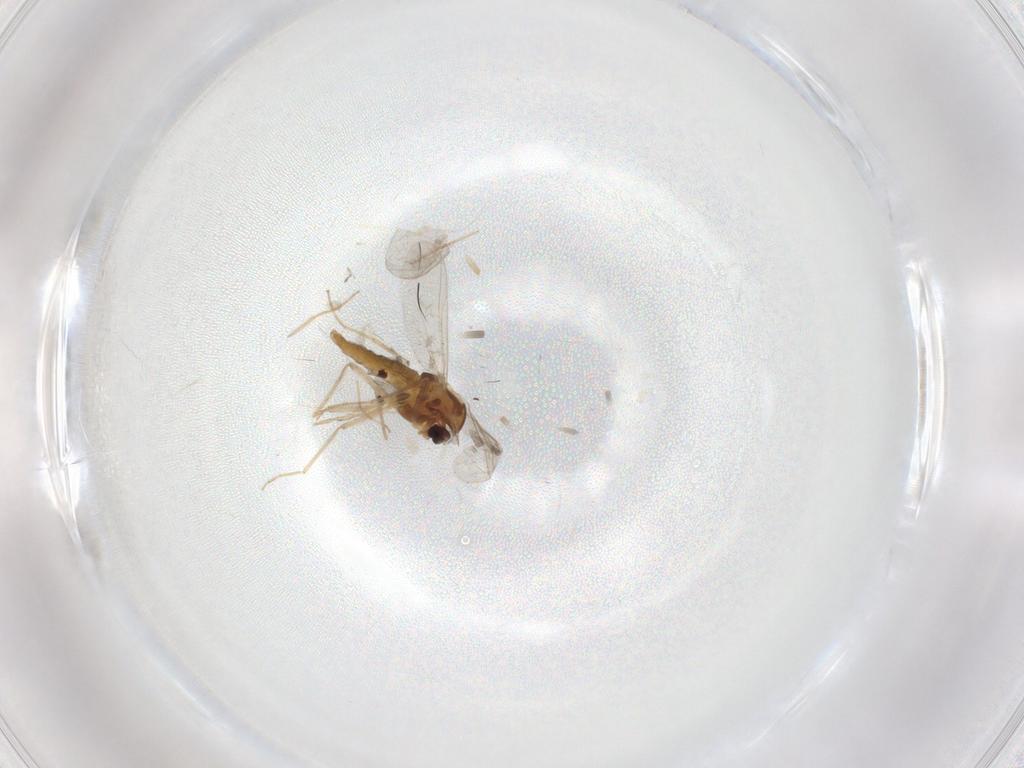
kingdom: Animalia
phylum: Arthropoda
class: Insecta
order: Diptera
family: Chironomidae
